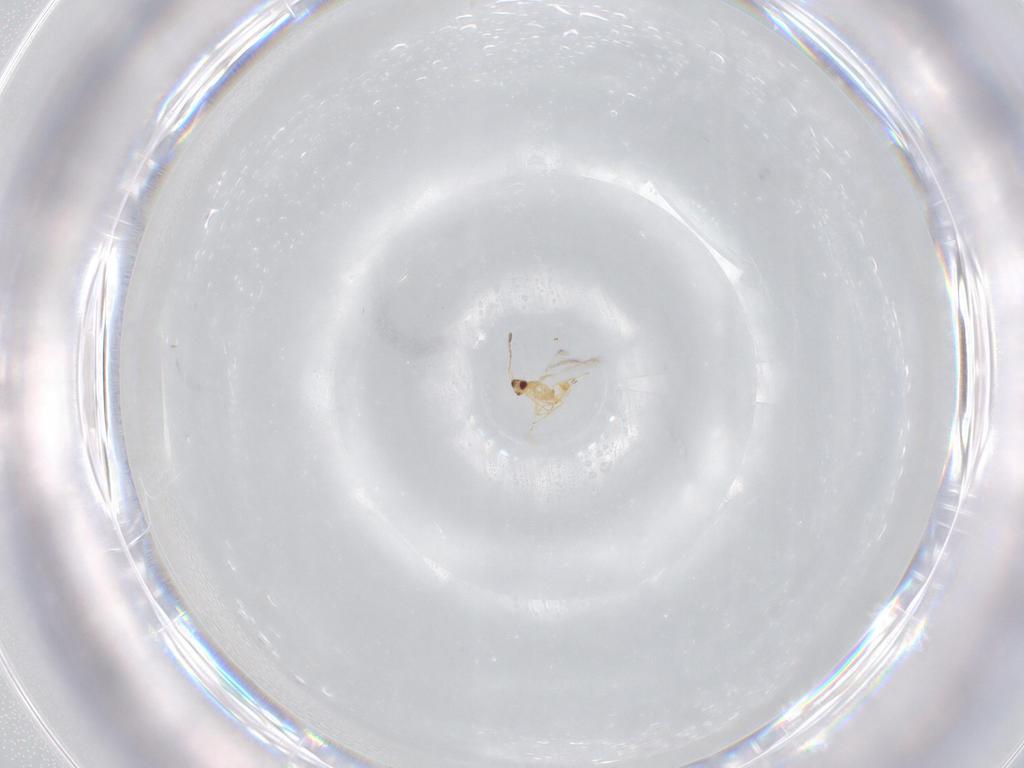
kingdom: Animalia
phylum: Arthropoda
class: Insecta
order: Hymenoptera
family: Mymaridae
